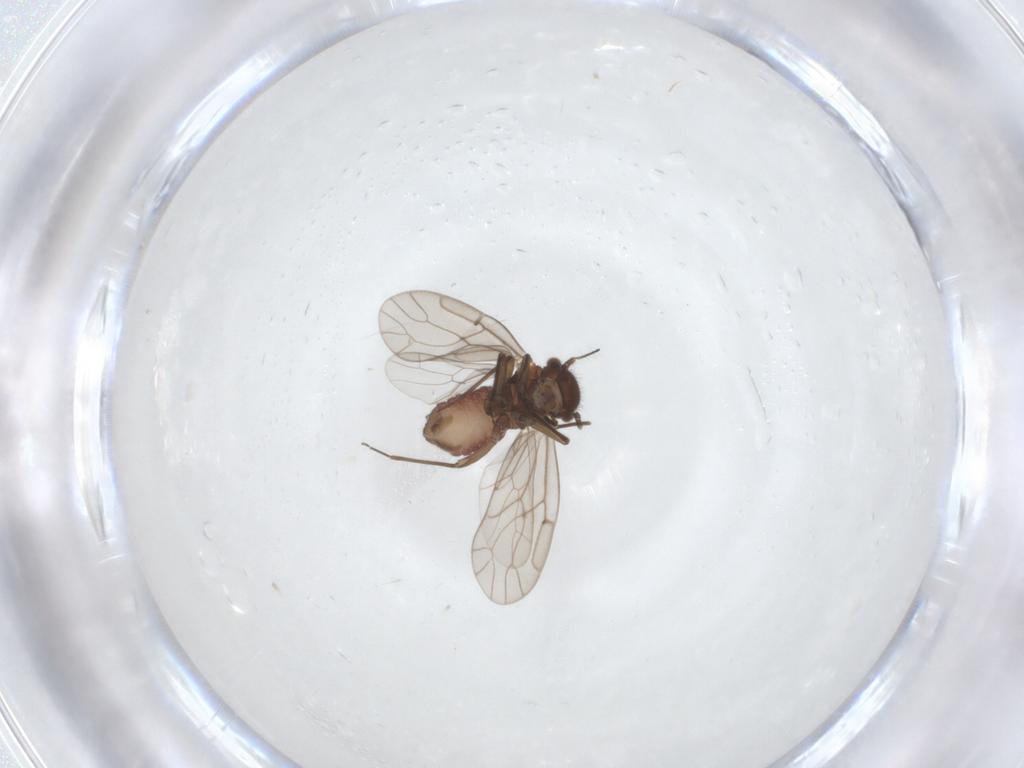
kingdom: Animalia
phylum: Arthropoda
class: Insecta
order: Psocodea
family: Ectopsocidae
